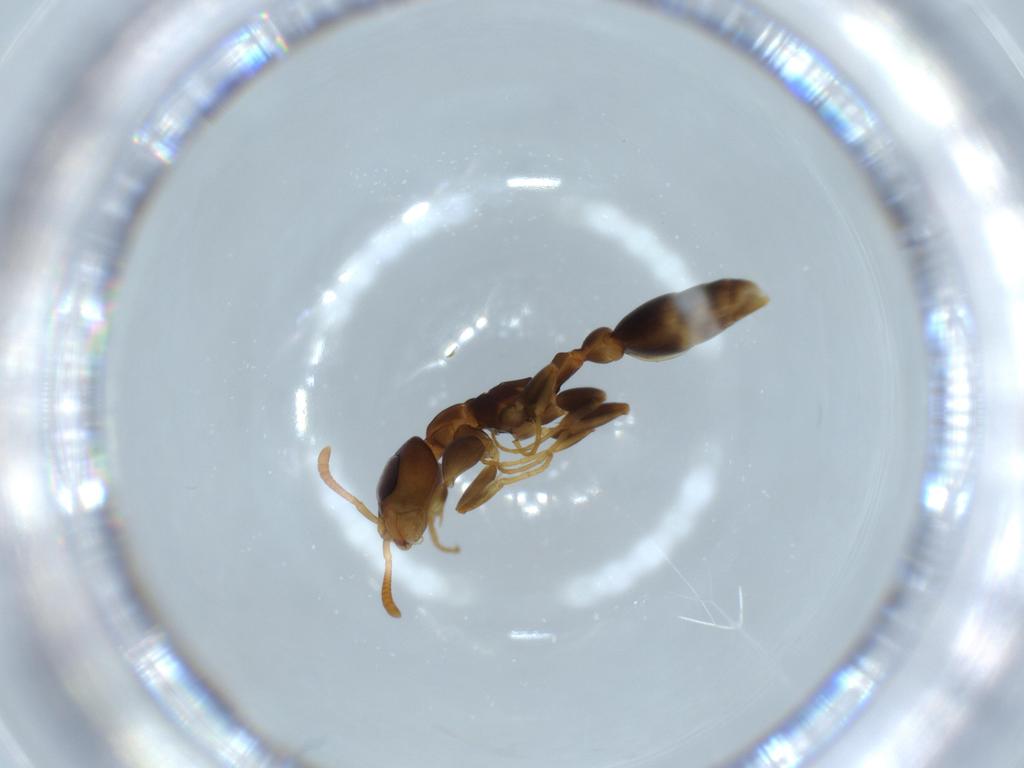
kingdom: Animalia
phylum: Arthropoda
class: Insecta
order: Hymenoptera
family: Formicidae
